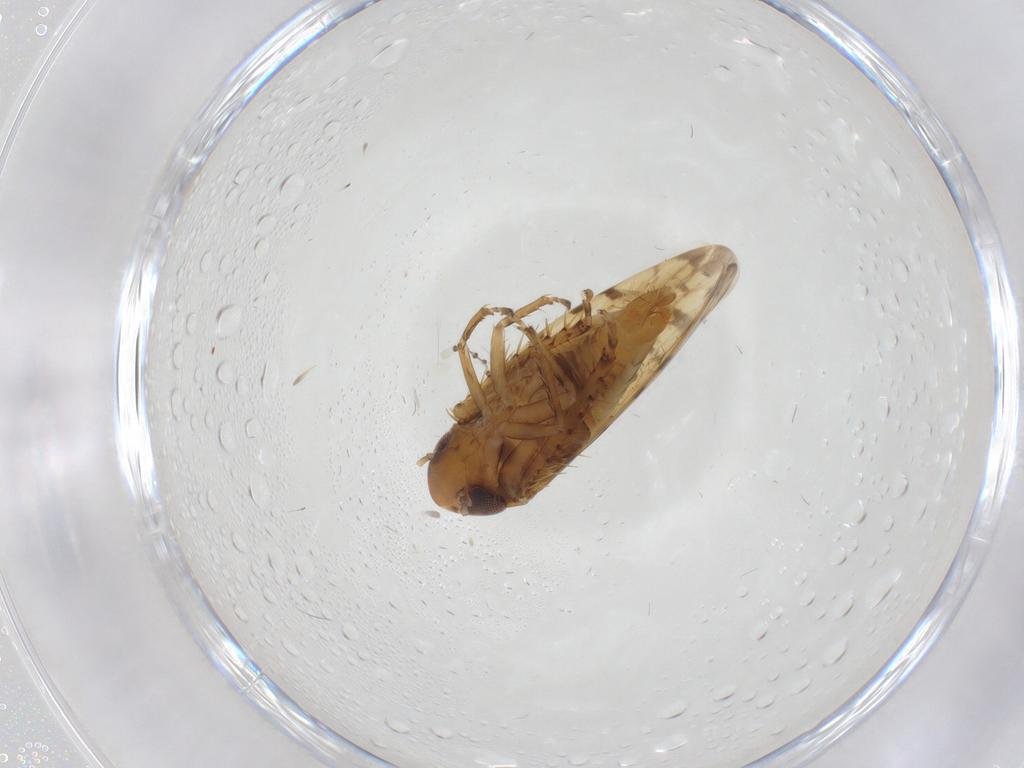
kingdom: Animalia
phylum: Arthropoda
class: Insecta
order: Hemiptera
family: Cicadellidae
